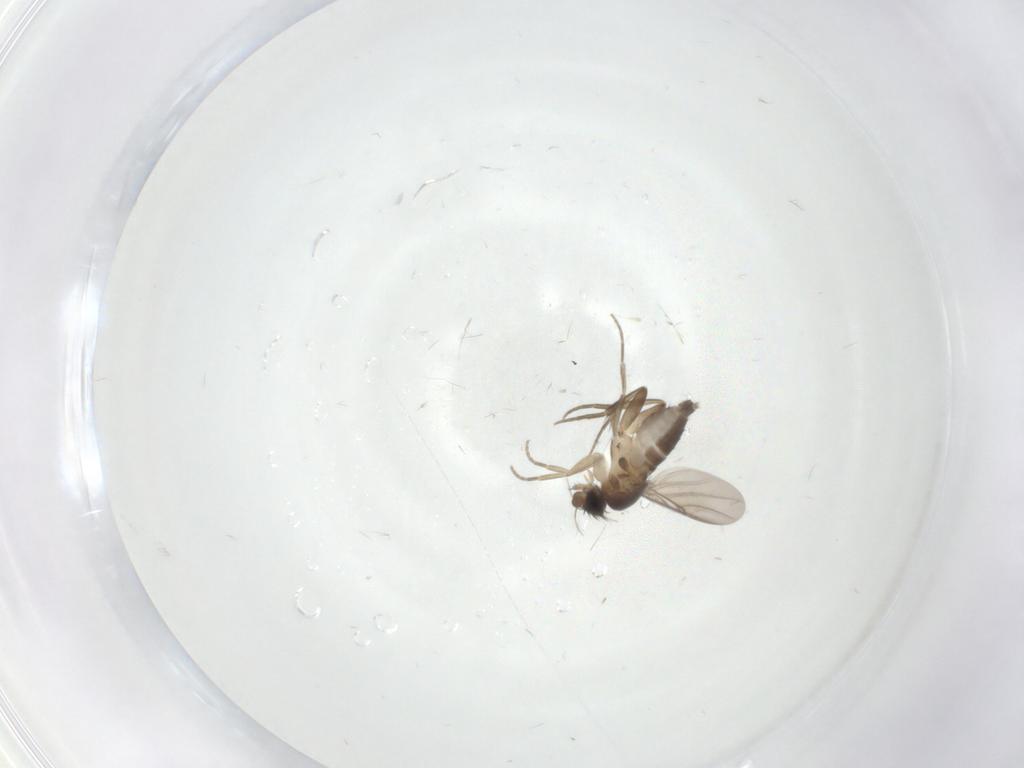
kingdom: Animalia
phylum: Arthropoda
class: Insecta
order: Diptera
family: Phoridae
